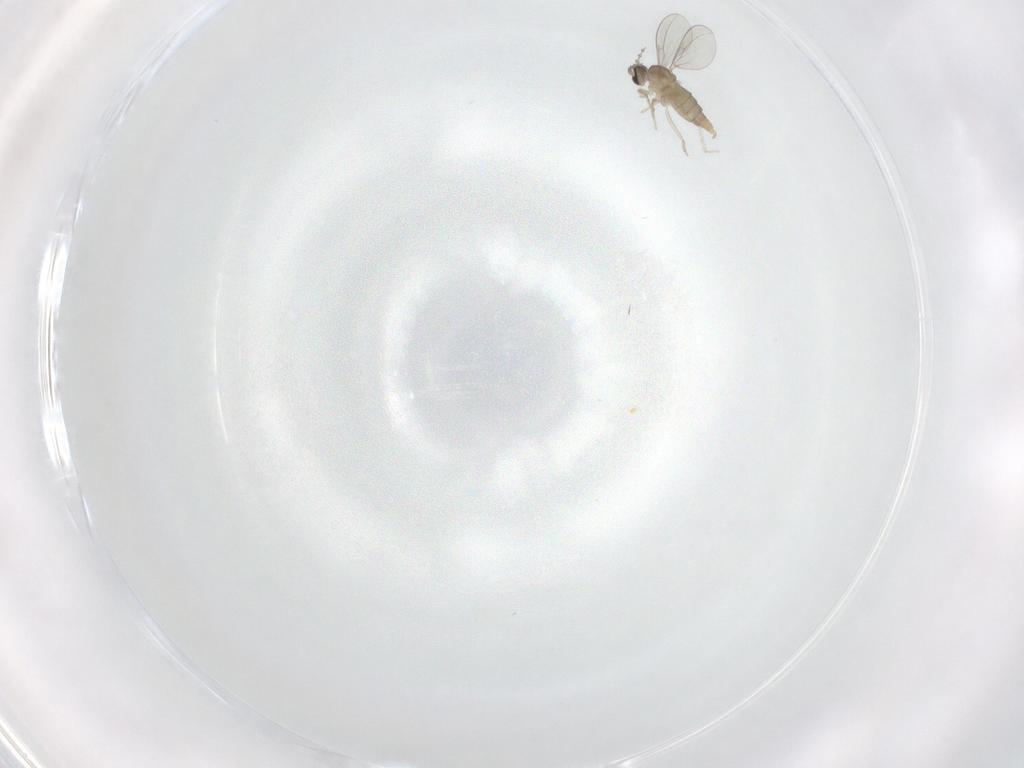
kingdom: Animalia
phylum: Arthropoda
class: Insecta
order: Diptera
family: Cecidomyiidae
